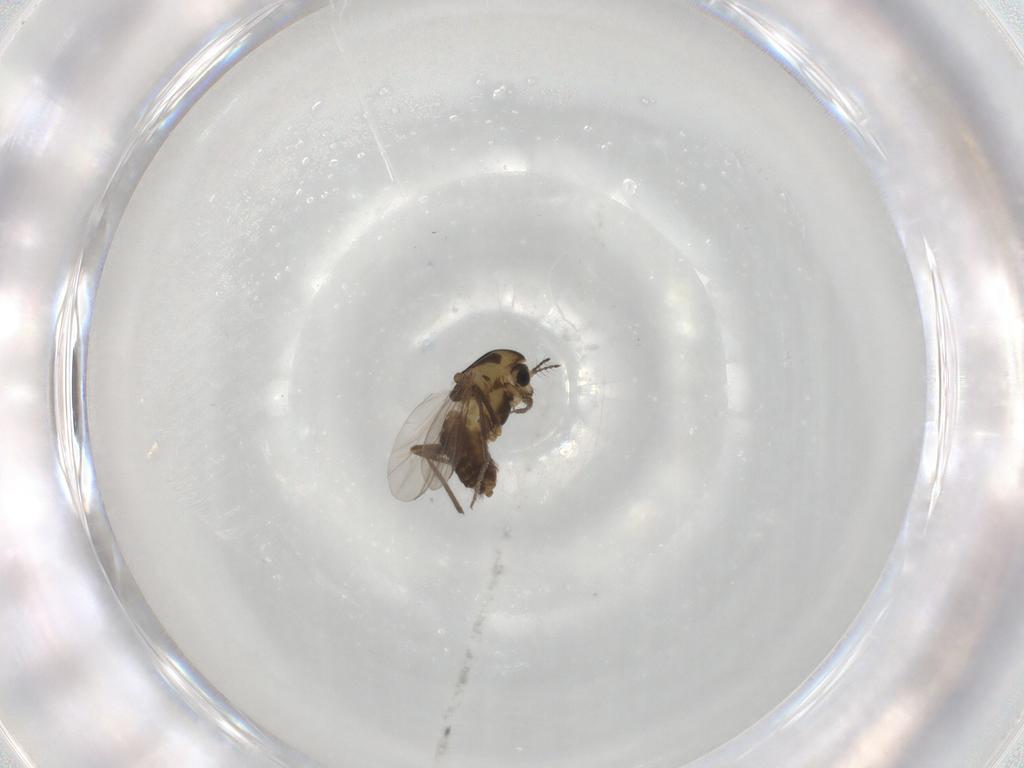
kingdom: Animalia
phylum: Arthropoda
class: Insecta
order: Diptera
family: Chironomidae
